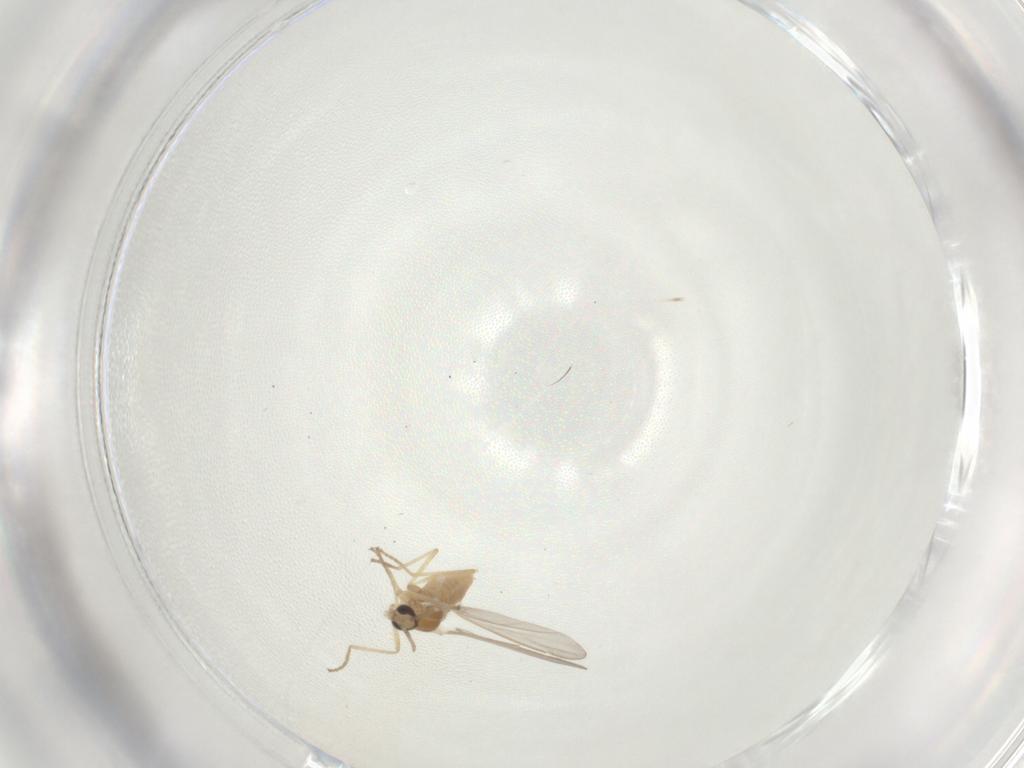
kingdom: Animalia
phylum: Arthropoda
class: Insecta
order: Diptera
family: Cecidomyiidae
